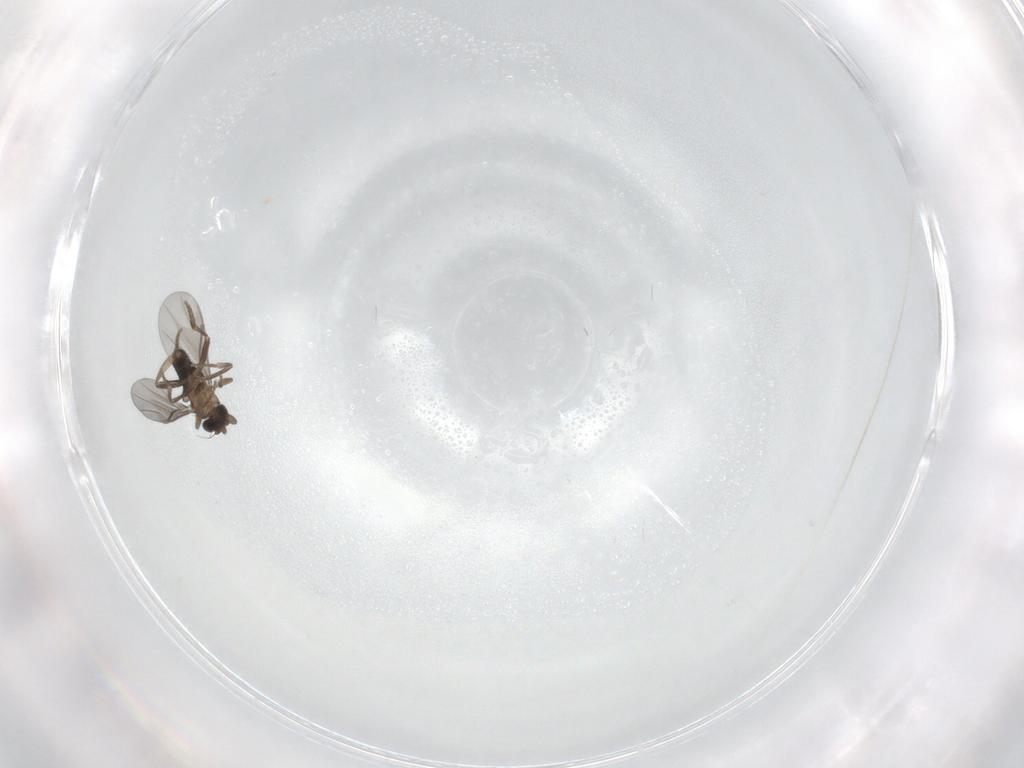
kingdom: Animalia
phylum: Arthropoda
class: Insecta
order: Diptera
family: Chironomidae
